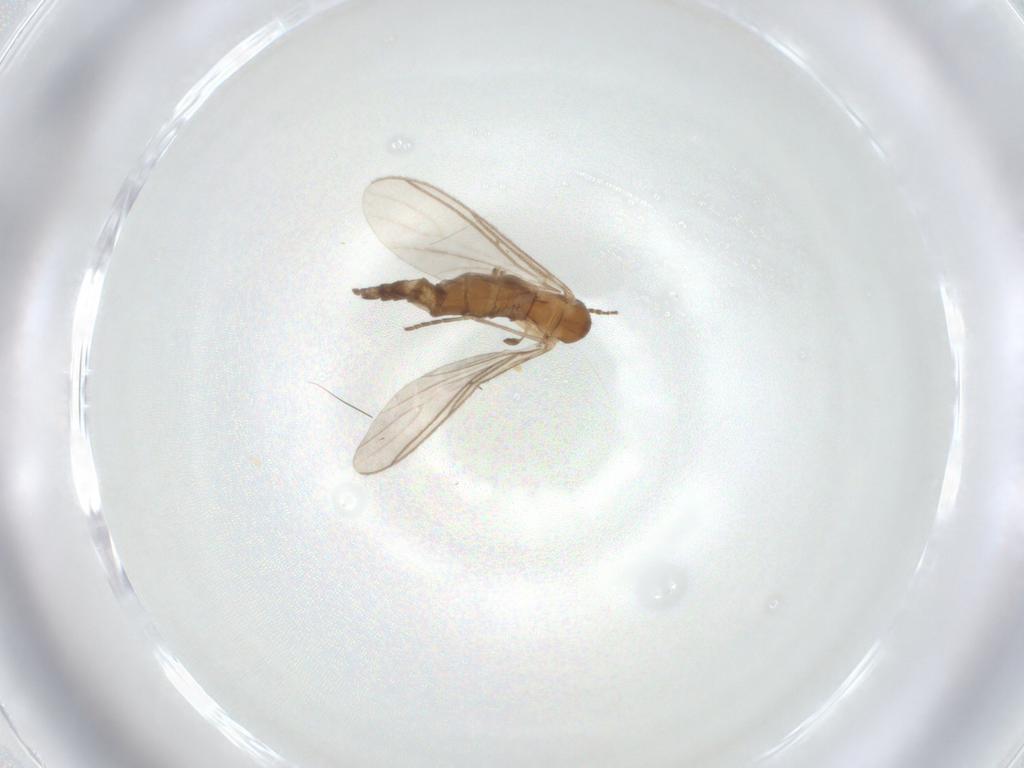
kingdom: Animalia
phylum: Arthropoda
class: Insecta
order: Diptera
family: Sciaridae
